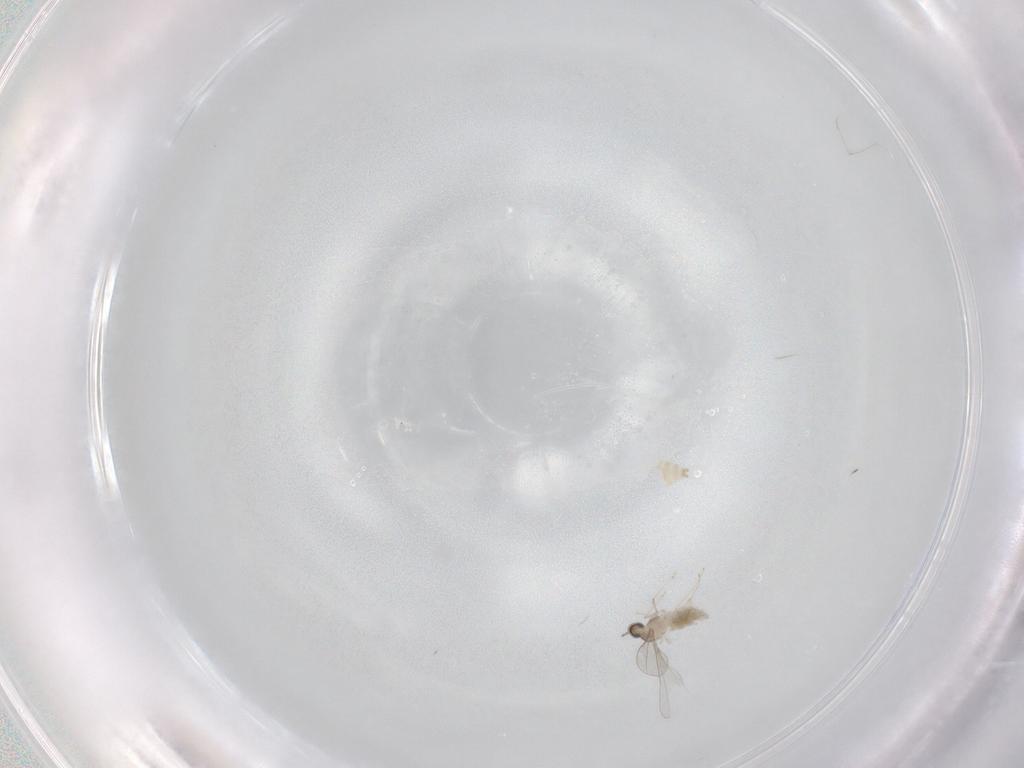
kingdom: Animalia
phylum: Arthropoda
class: Insecta
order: Diptera
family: Cecidomyiidae
